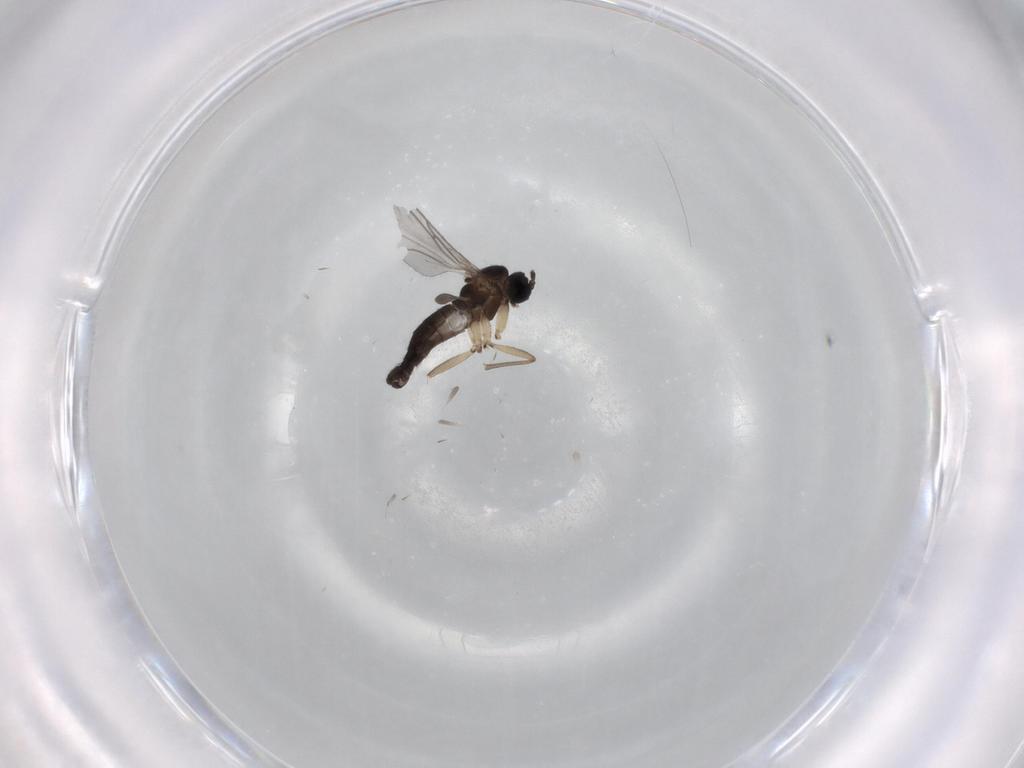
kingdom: Animalia
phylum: Arthropoda
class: Insecta
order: Diptera
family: Sciaridae
